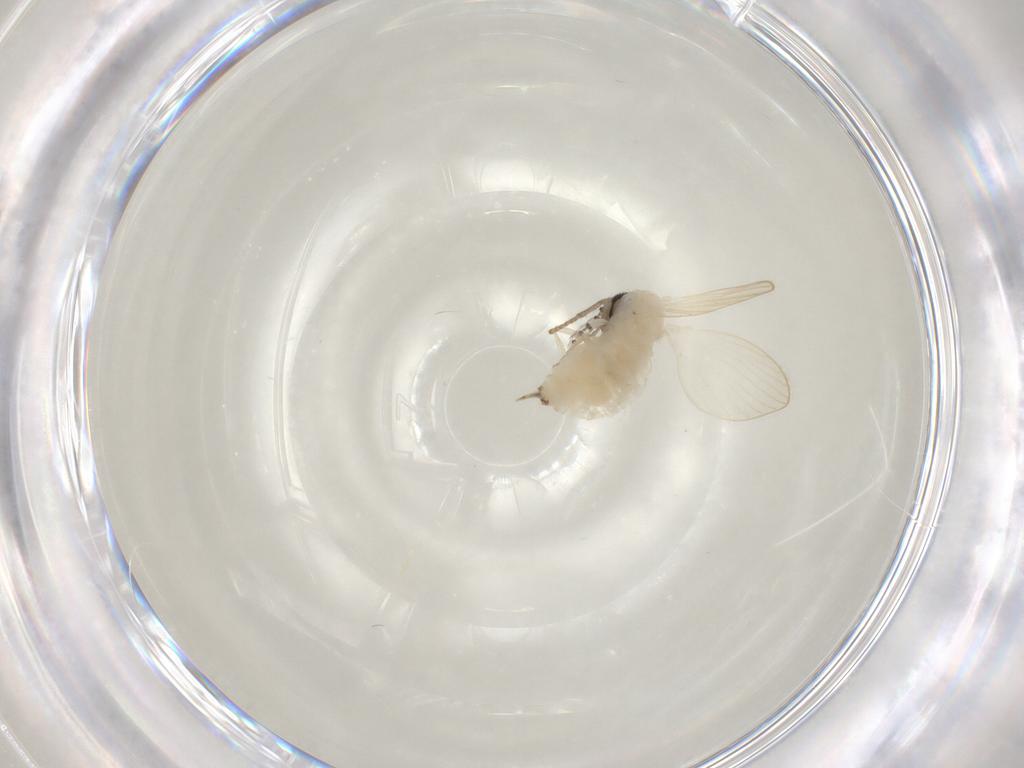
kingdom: Animalia
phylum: Arthropoda
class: Insecta
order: Diptera
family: Psychodidae
